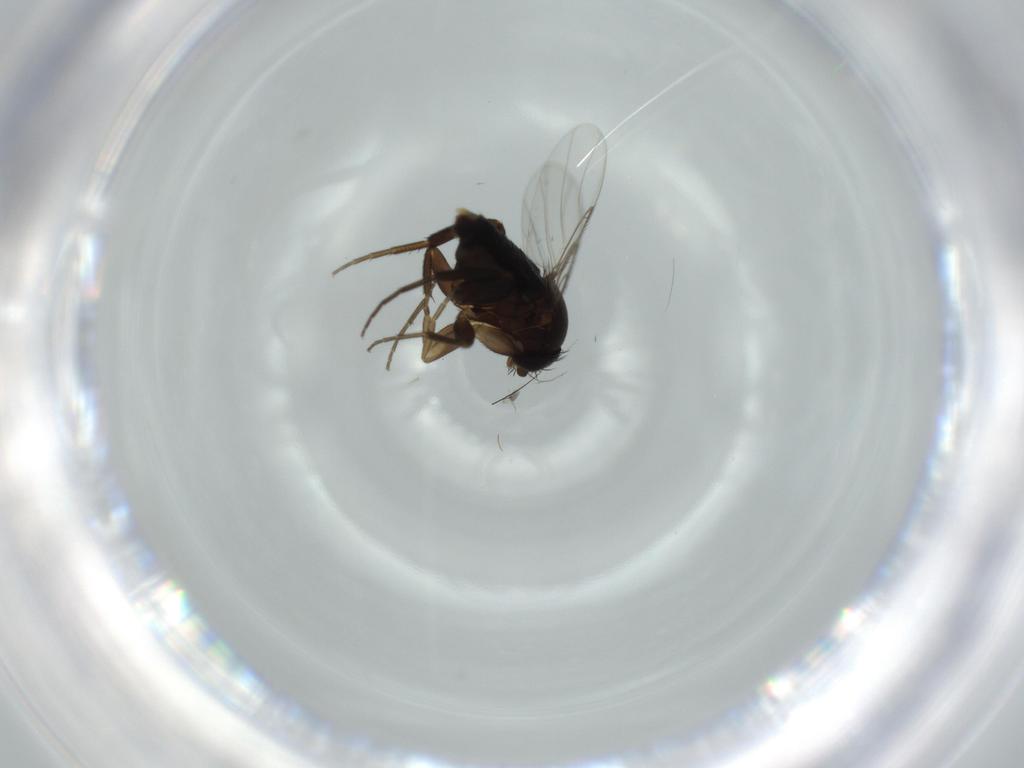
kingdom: Animalia
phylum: Arthropoda
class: Insecta
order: Diptera
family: Phoridae
